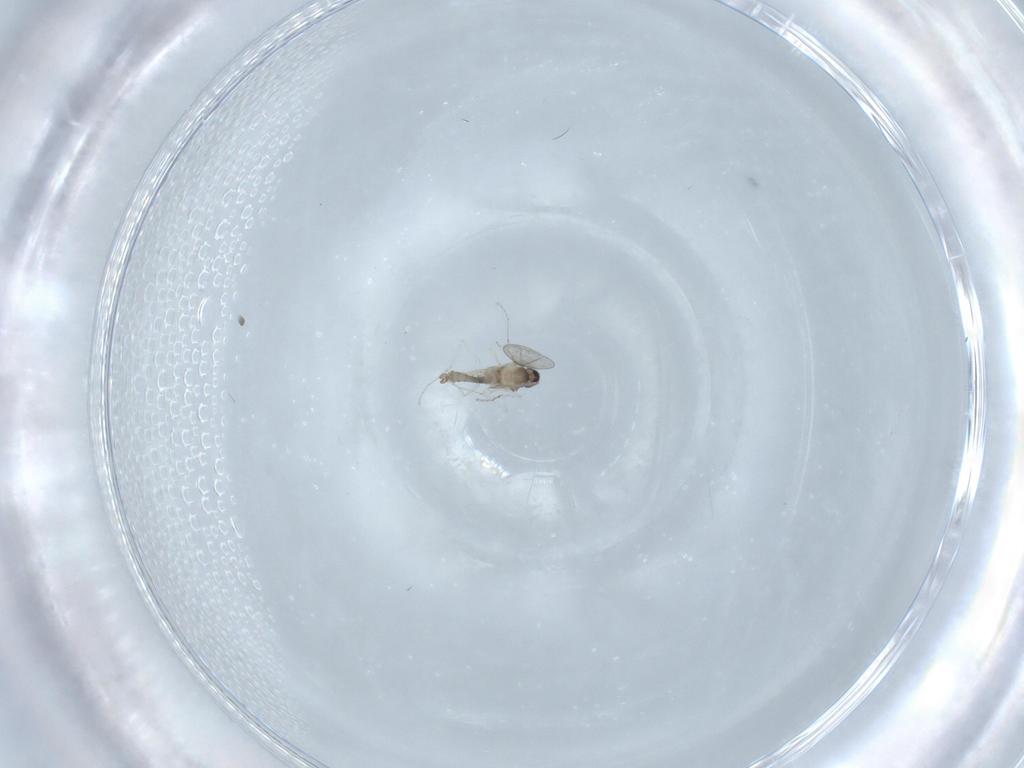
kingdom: Animalia
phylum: Arthropoda
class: Insecta
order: Diptera
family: Cecidomyiidae
